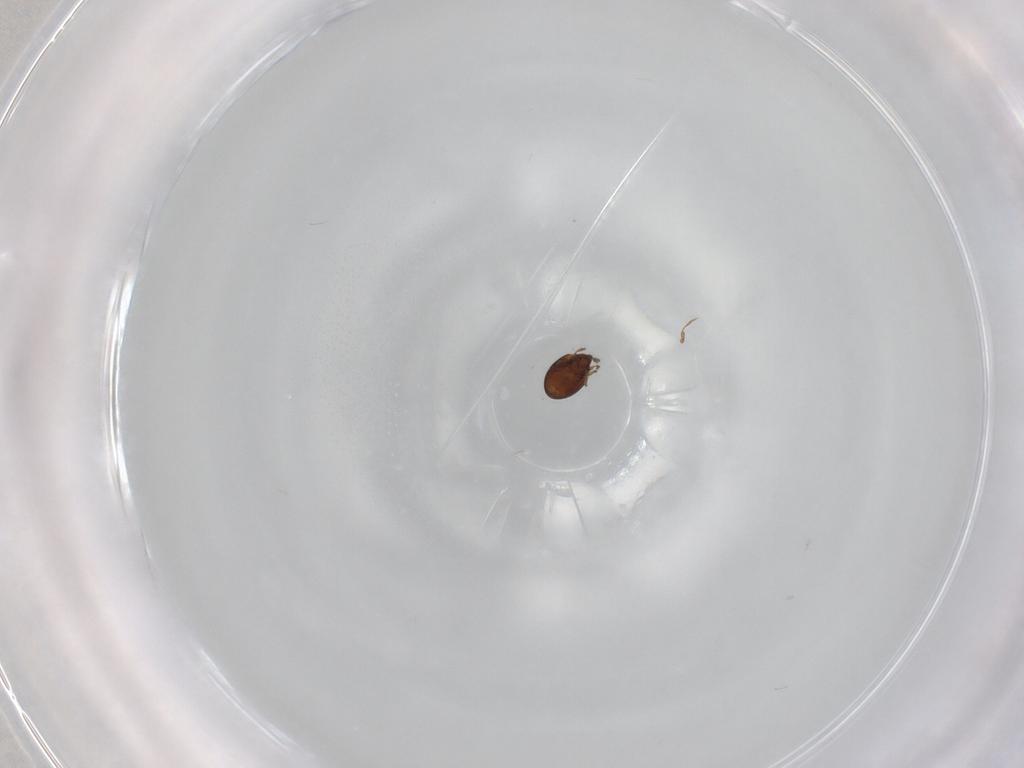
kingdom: Animalia
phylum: Arthropoda
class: Arachnida
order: Sarcoptiformes
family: Scheloribatidae
